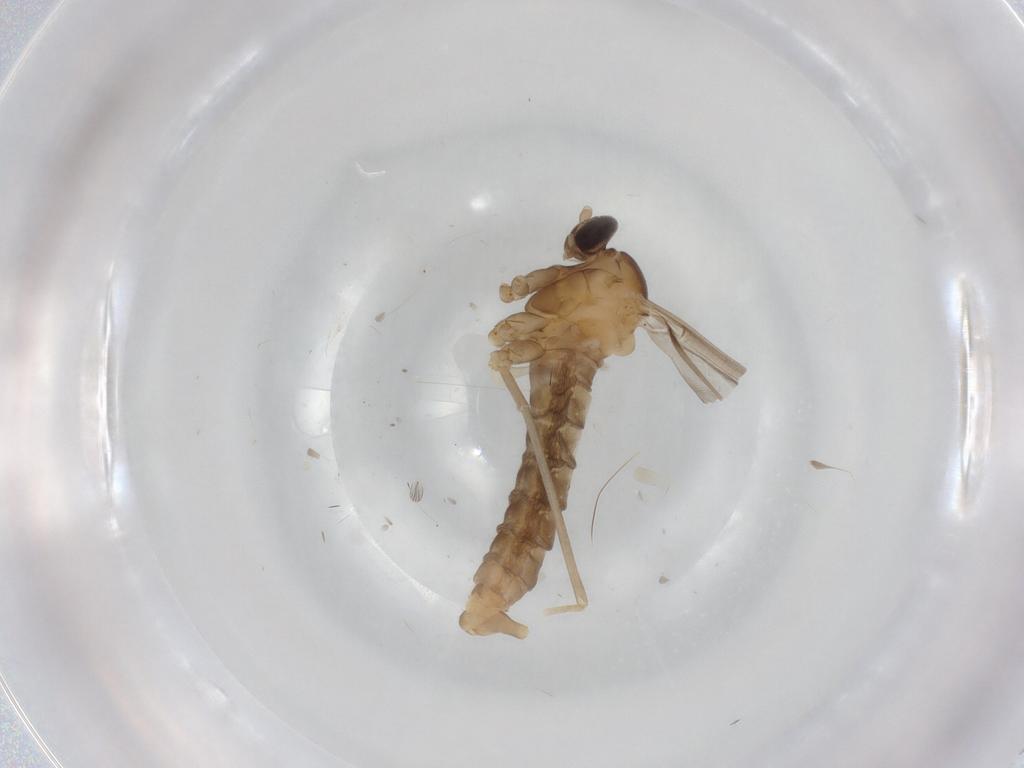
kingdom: Animalia
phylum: Arthropoda
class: Insecta
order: Diptera
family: Cecidomyiidae
